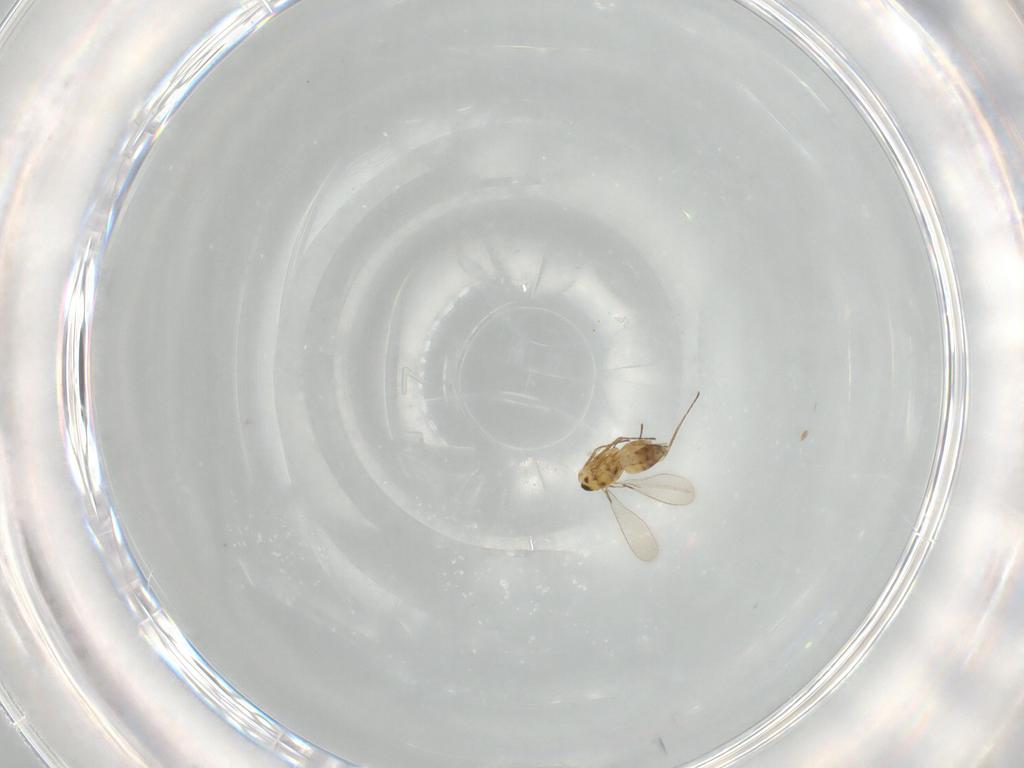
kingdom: Animalia
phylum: Arthropoda
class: Insecta
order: Hymenoptera
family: Mymaridae
